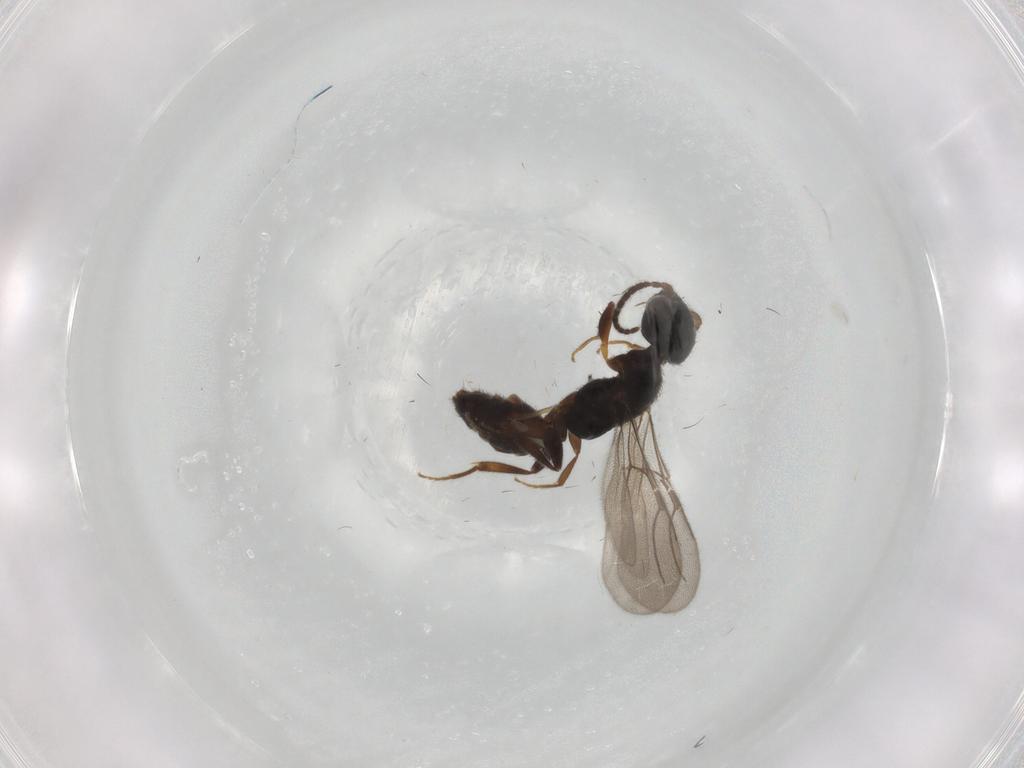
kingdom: Animalia
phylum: Arthropoda
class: Insecta
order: Hymenoptera
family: Bethylidae
